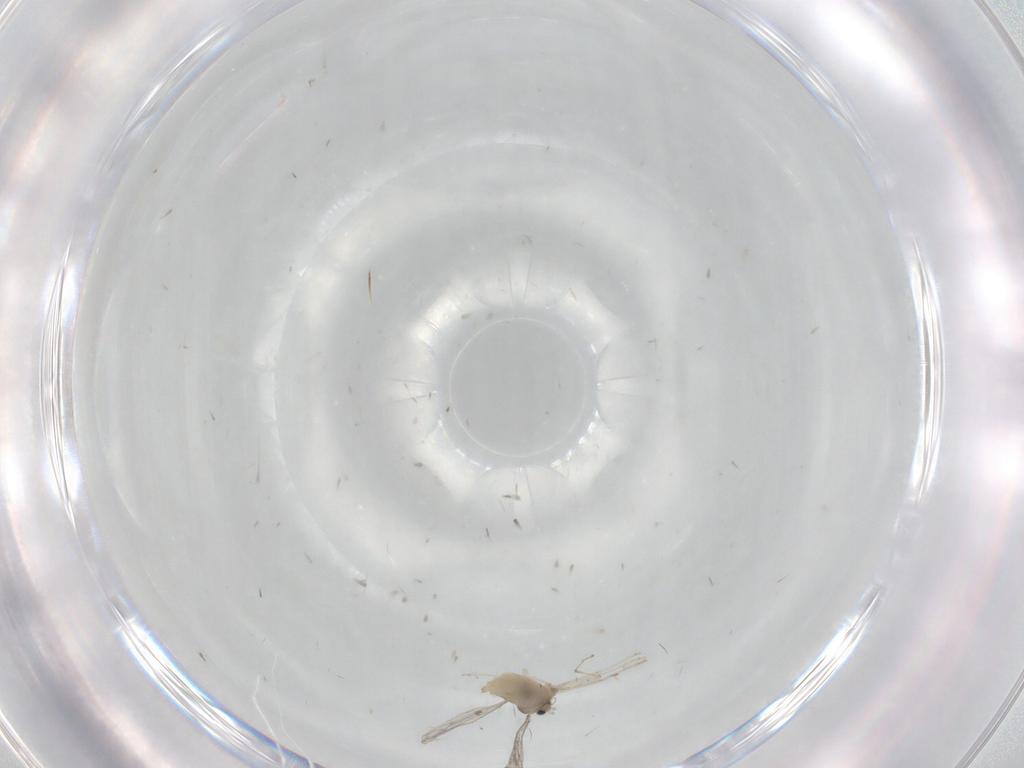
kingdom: Animalia
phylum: Arthropoda
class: Insecta
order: Diptera
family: Cecidomyiidae
